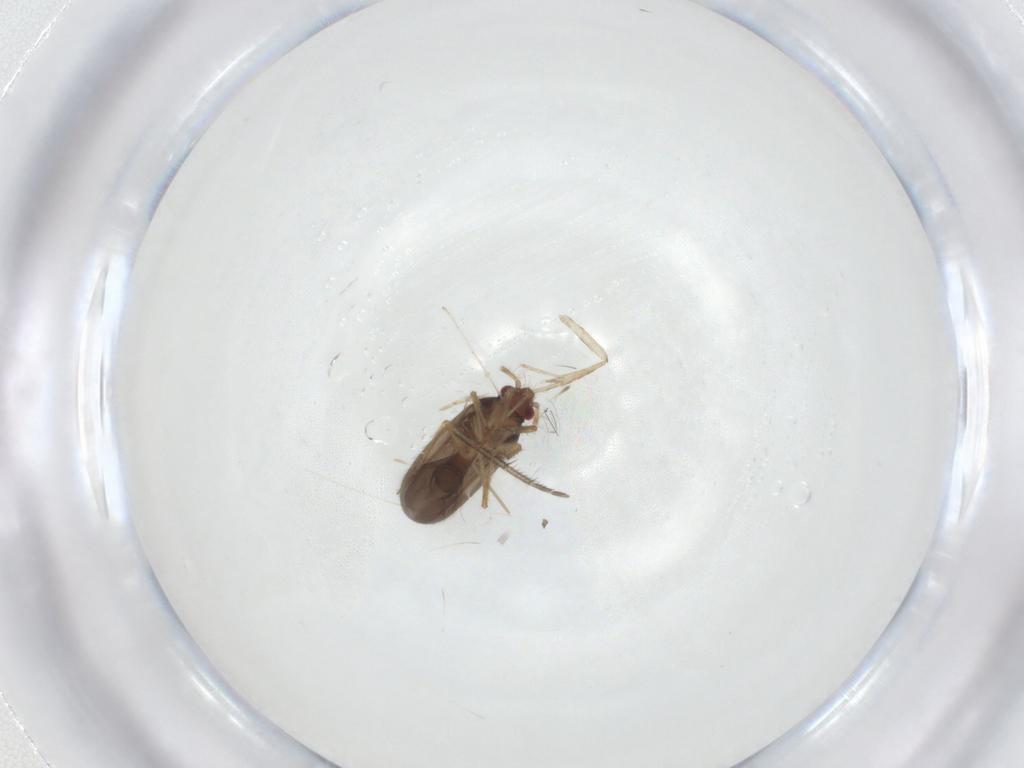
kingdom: Animalia
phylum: Arthropoda
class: Insecta
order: Hemiptera
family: Ceratocombidae
